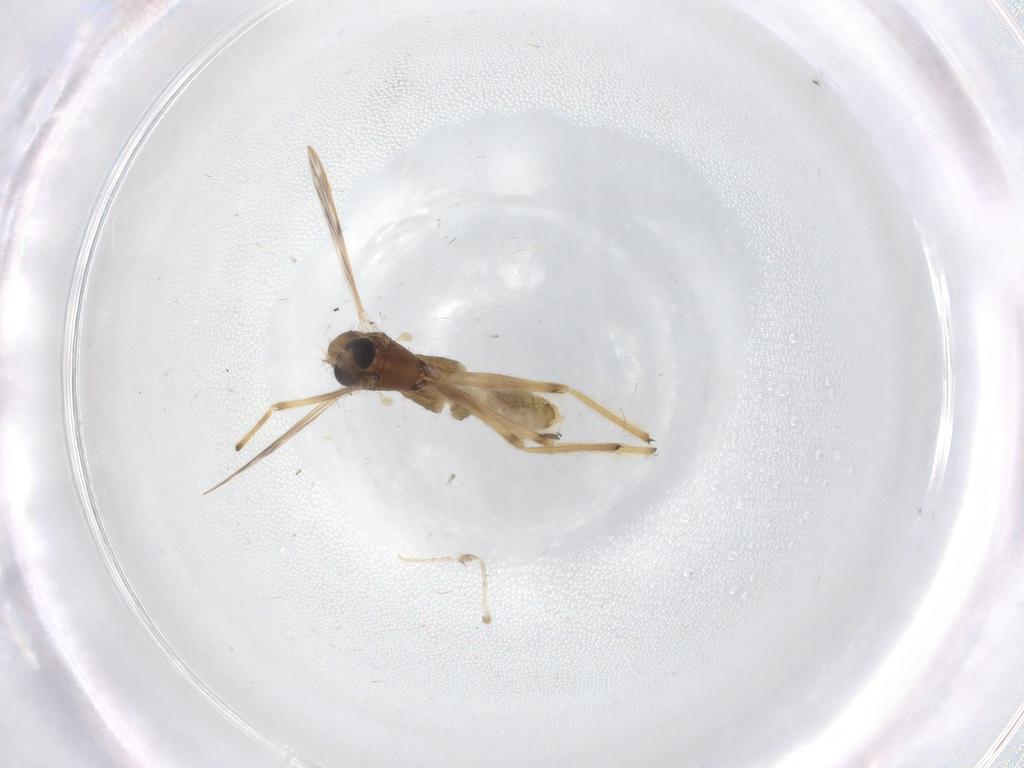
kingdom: Animalia
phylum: Arthropoda
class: Insecta
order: Diptera
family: Chironomidae
